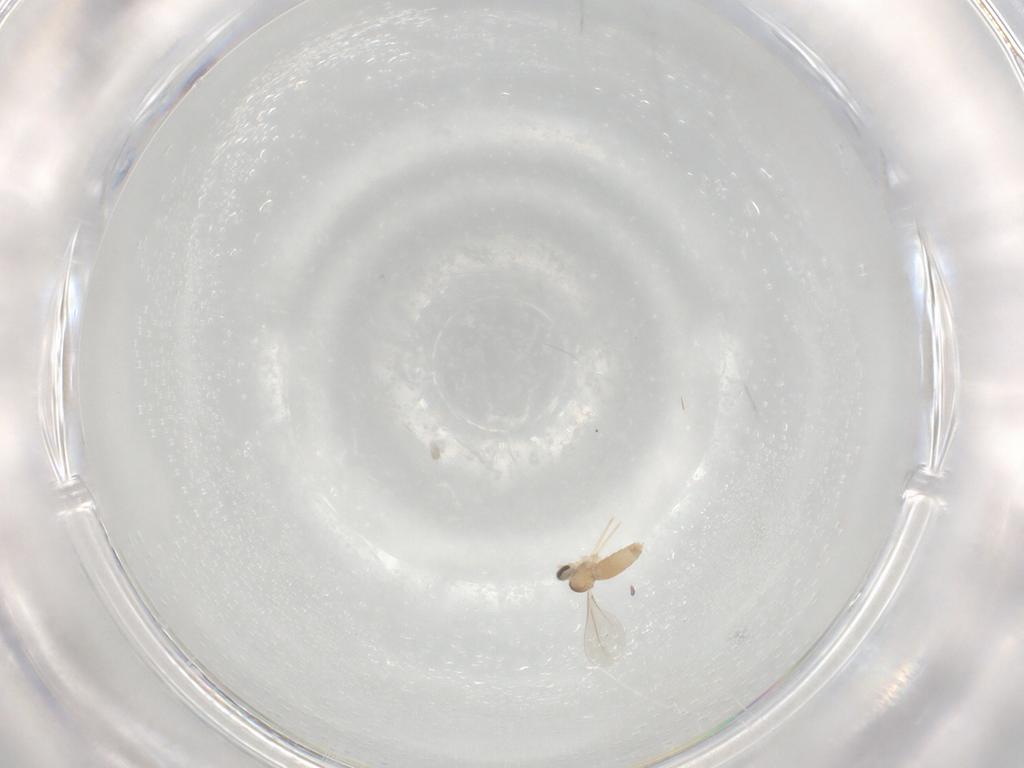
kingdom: Animalia
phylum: Arthropoda
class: Insecta
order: Diptera
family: Cecidomyiidae
